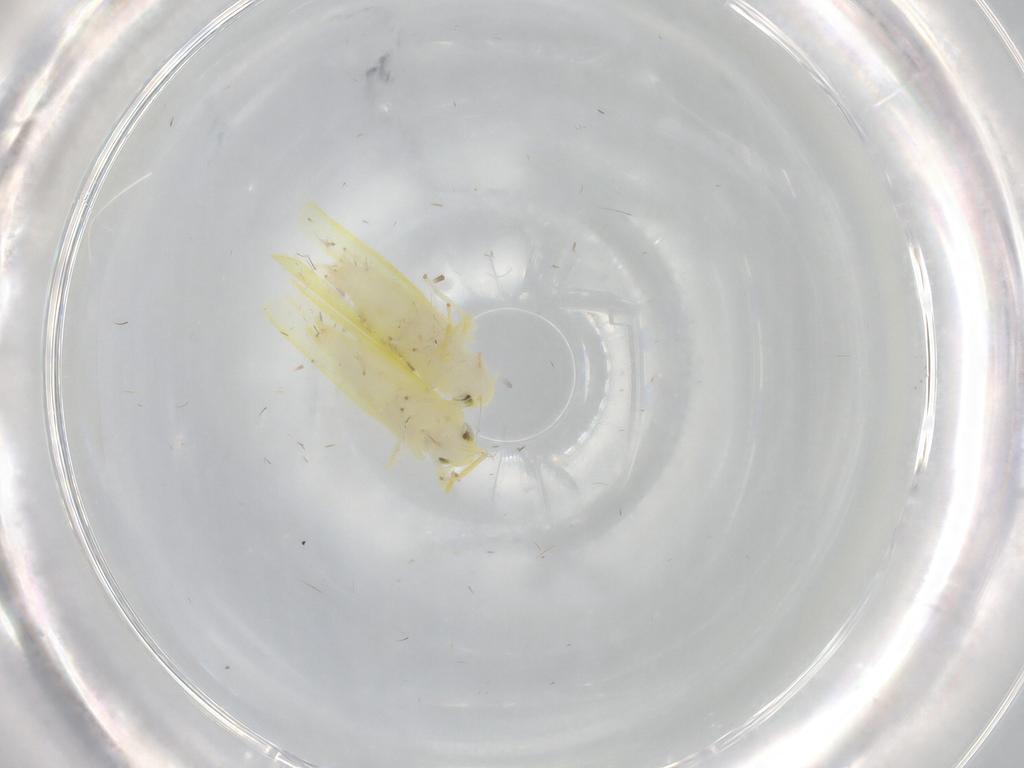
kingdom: Animalia
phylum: Arthropoda
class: Insecta
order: Hemiptera
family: Cicadellidae
